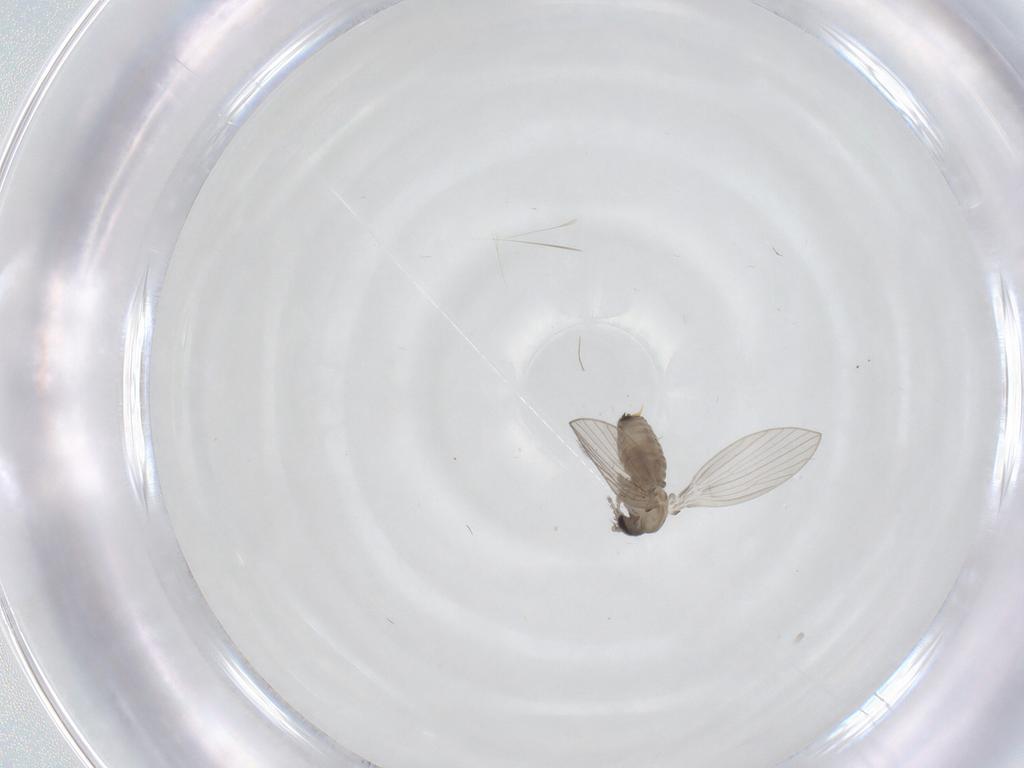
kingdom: Animalia
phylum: Arthropoda
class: Insecta
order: Diptera
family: Psychodidae
